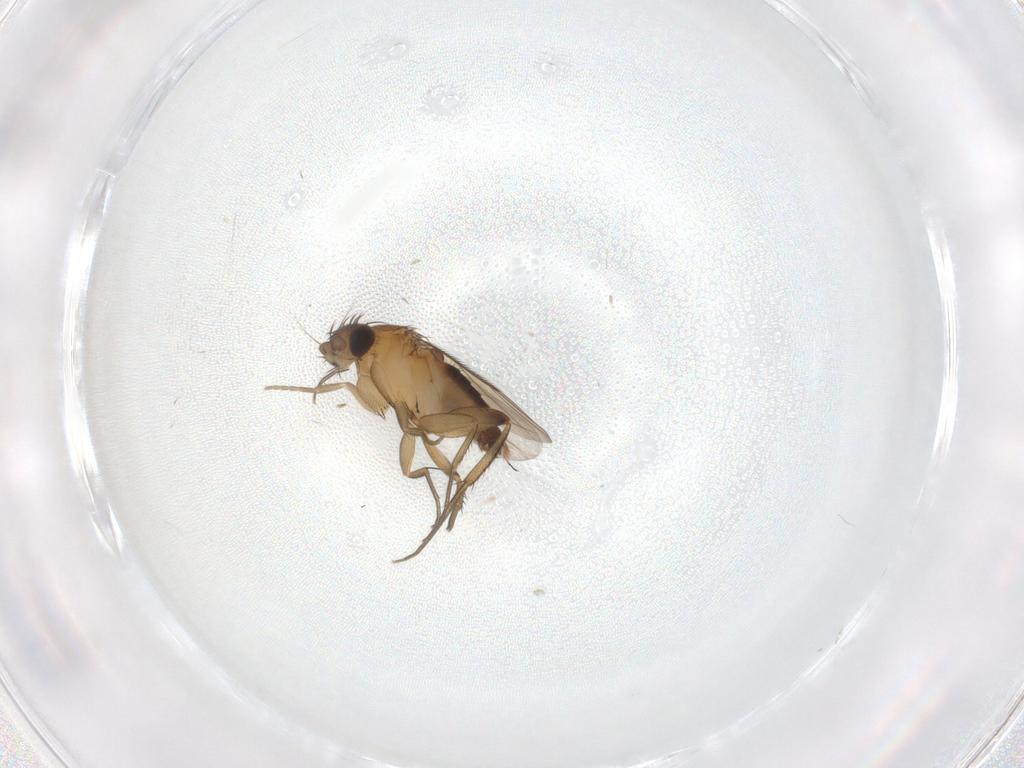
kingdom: Animalia
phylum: Arthropoda
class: Insecta
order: Diptera
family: Phoridae
